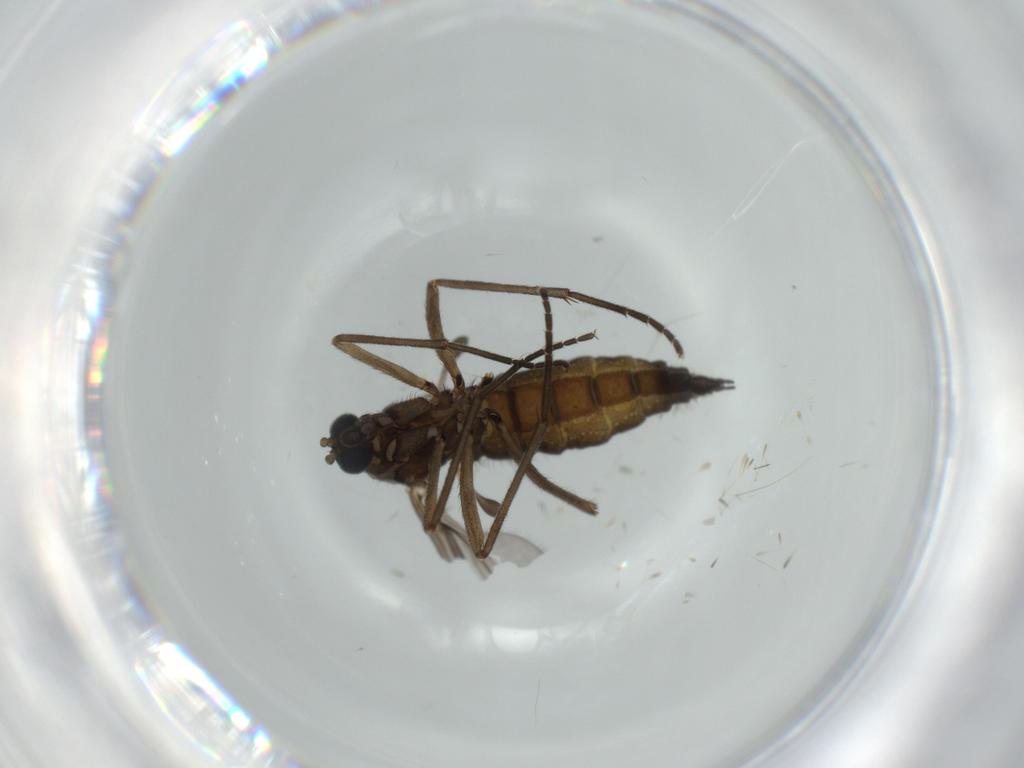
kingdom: Animalia
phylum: Arthropoda
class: Insecta
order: Diptera
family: Sciaridae
